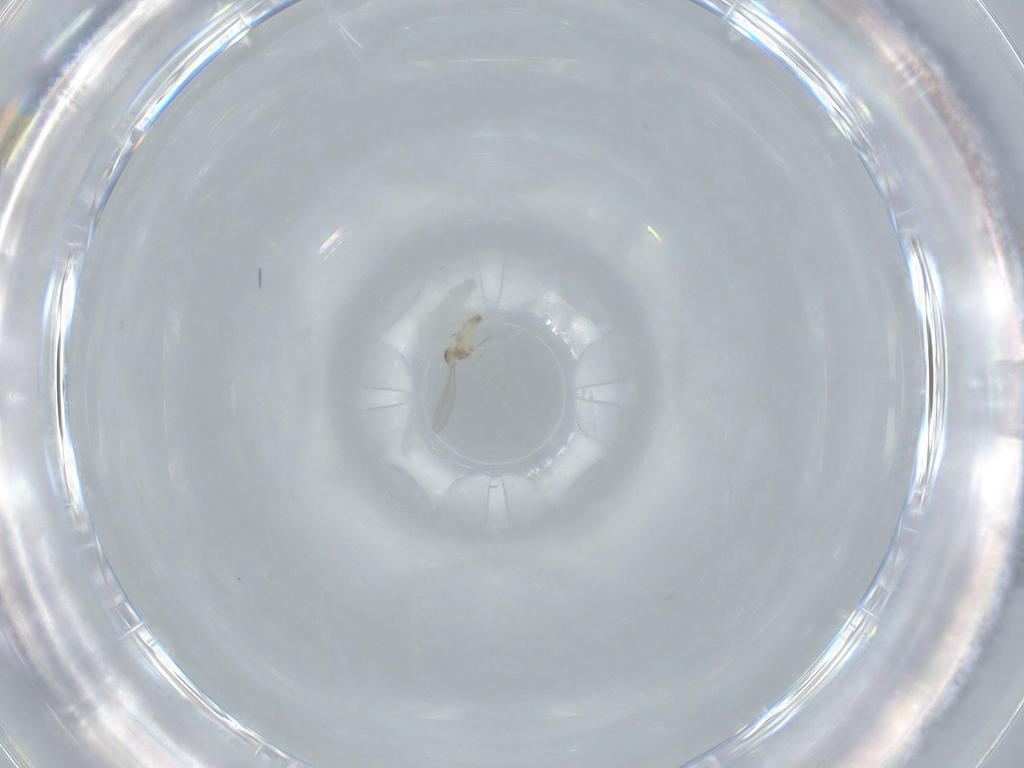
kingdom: Animalia
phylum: Arthropoda
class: Insecta
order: Diptera
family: Cecidomyiidae
